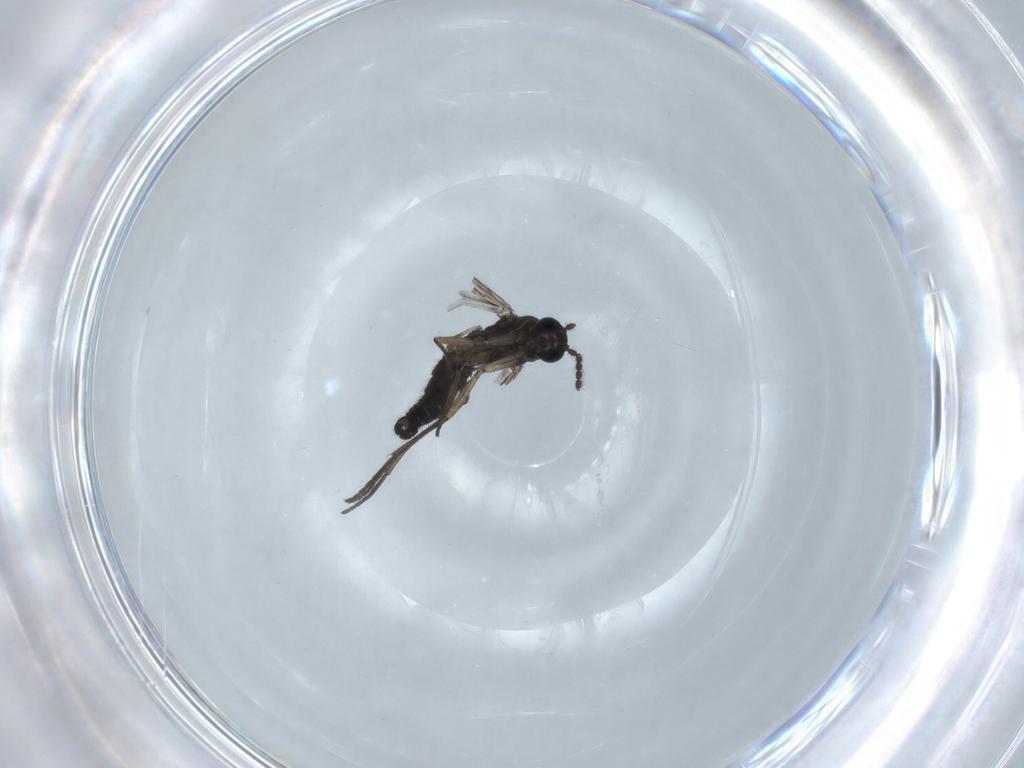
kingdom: Animalia
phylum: Arthropoda
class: Insecta
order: Diptera
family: Sciaridae
